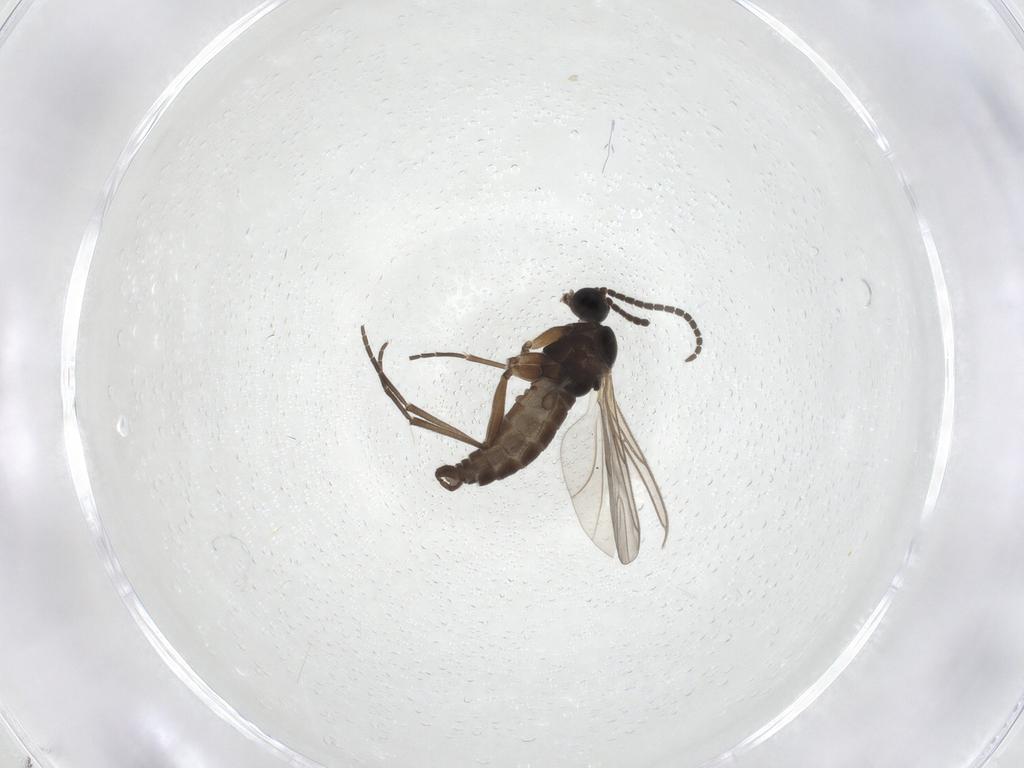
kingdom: Animalia
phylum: Arthropoda
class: Insecta
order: Diptera
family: Sciaridae
